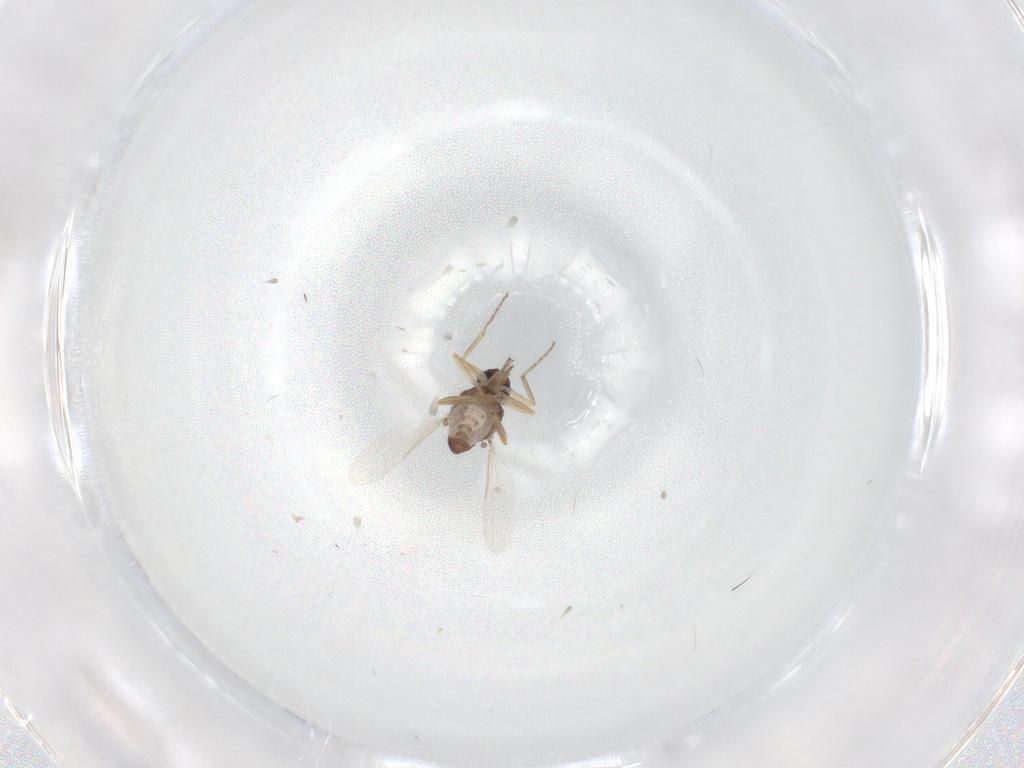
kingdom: Animalia
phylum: Arthropoda
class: Insecta
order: Diptera
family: Ceratopogonidae
